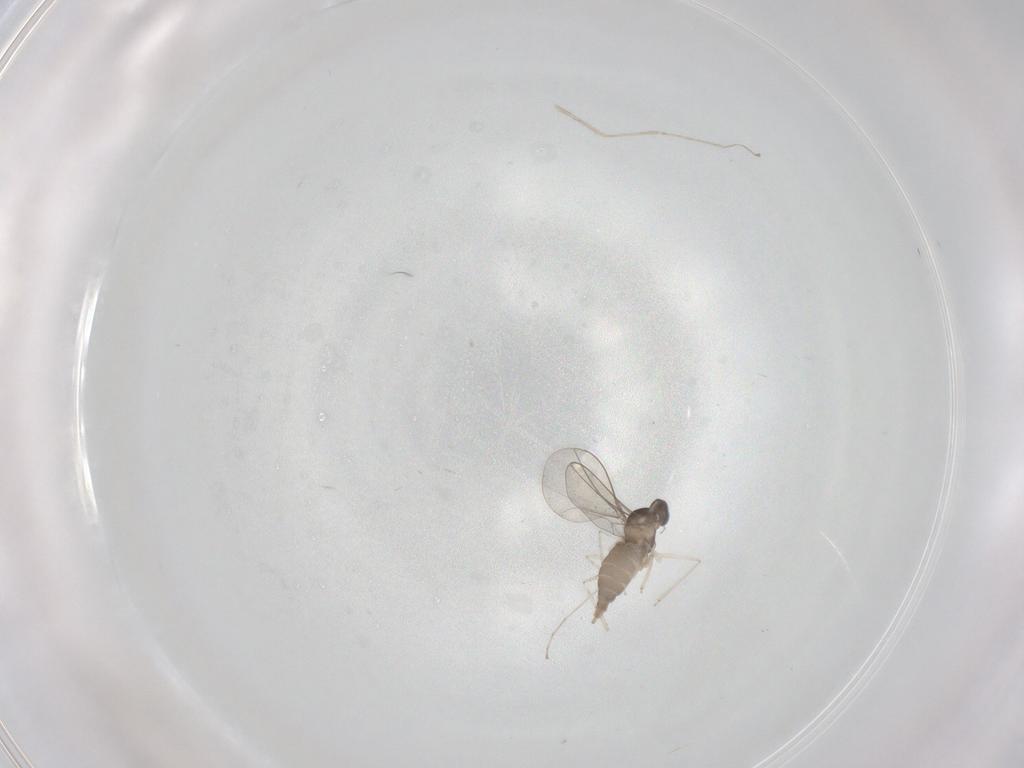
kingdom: Animalia
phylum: Arthropoda
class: Insecta
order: Diptera
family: Cecidomyiidae
